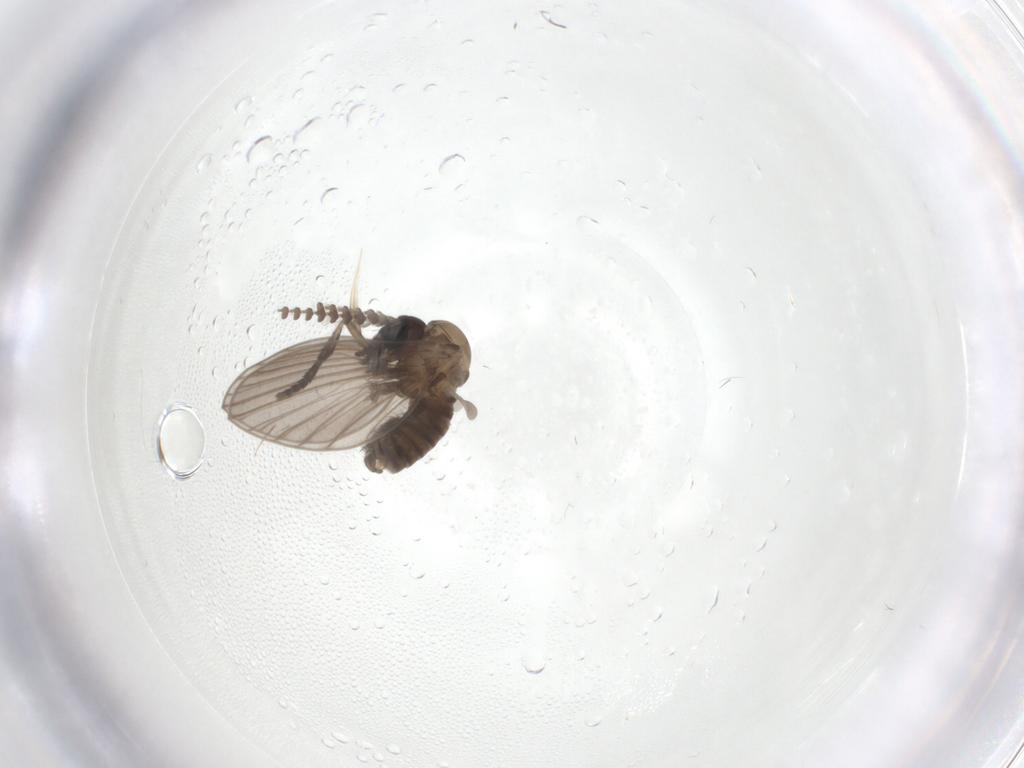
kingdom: Animalia
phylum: Arthropoda
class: Insecta
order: Diptera
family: Psychodidae
